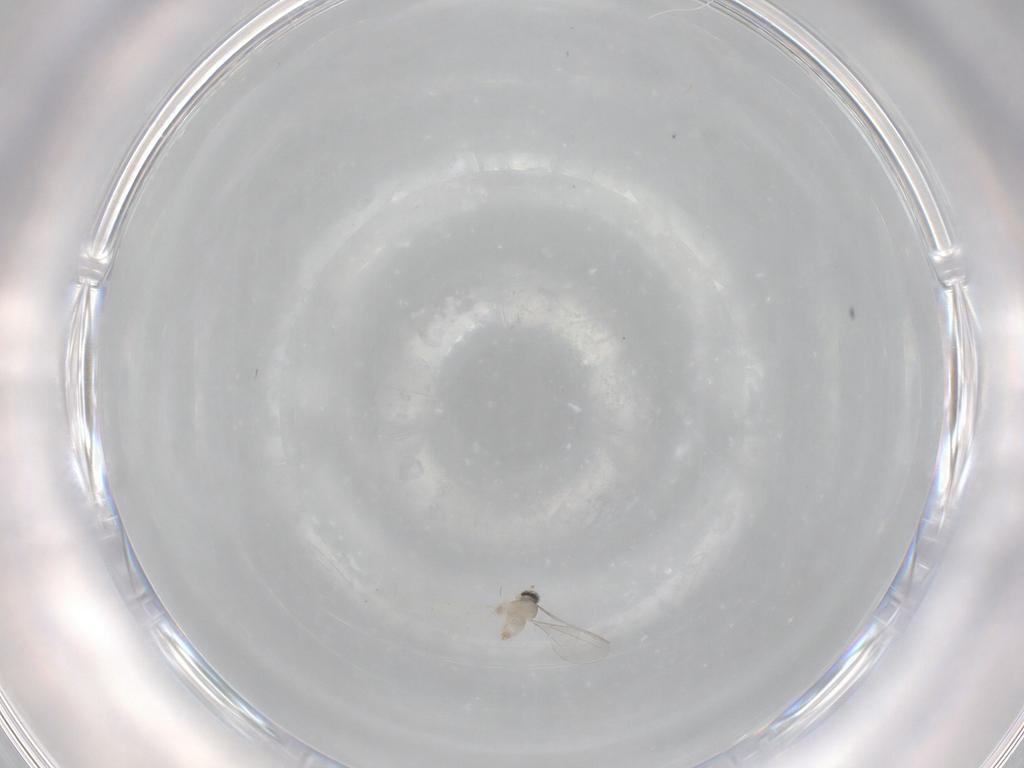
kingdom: Animalia
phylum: Arthropoda
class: Insecta
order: Diptera
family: Cecidomyiidae
